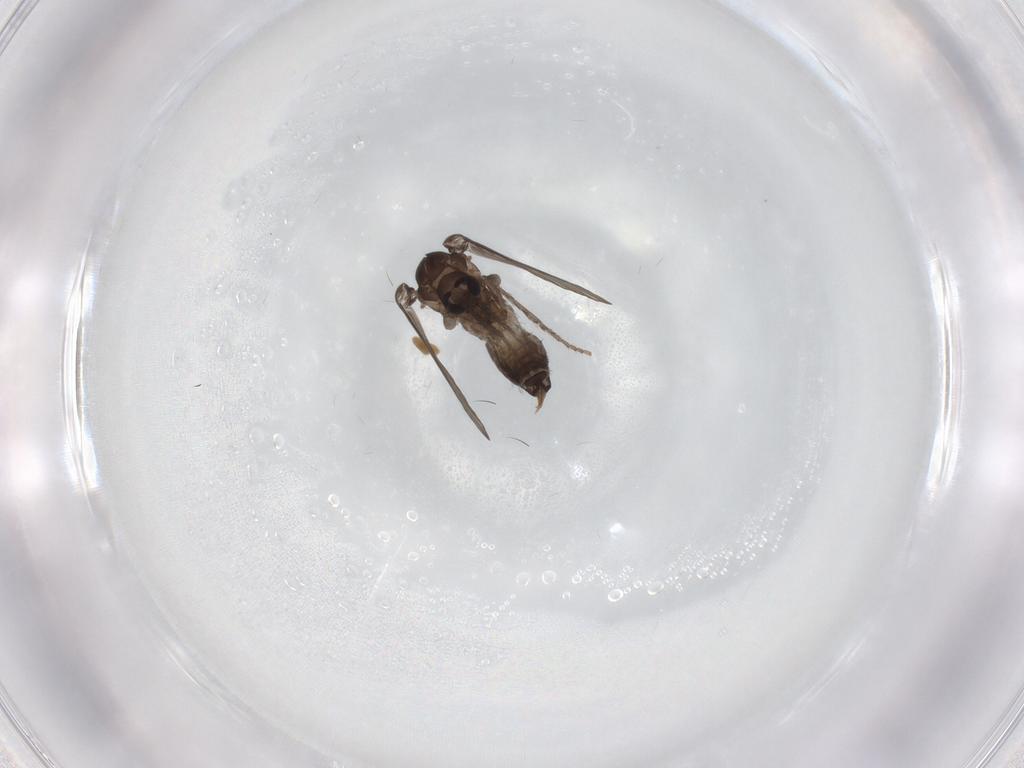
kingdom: Animalia
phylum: Arthropoda
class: Insecta
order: Diptera
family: Psychodidae
